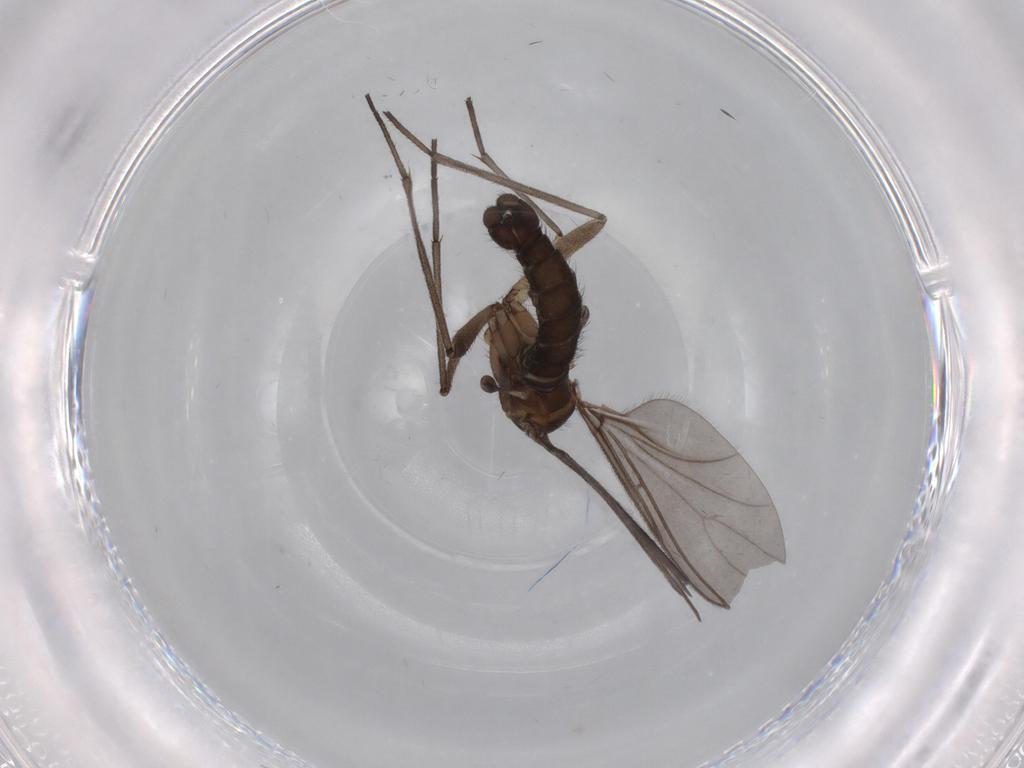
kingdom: Animalia
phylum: Arthropoda
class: Insecta
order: Diptera
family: Sciaridae
